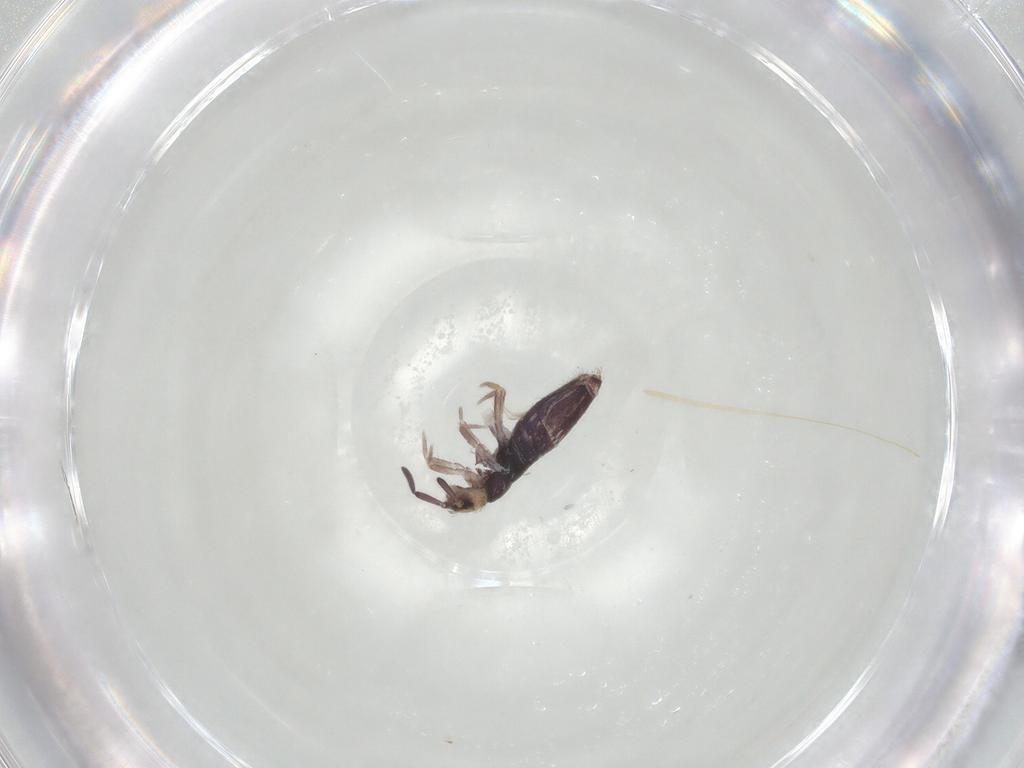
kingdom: Animalia
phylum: Arthropoda
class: Collembola
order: Entomobryomorpha
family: Entomobryidae
